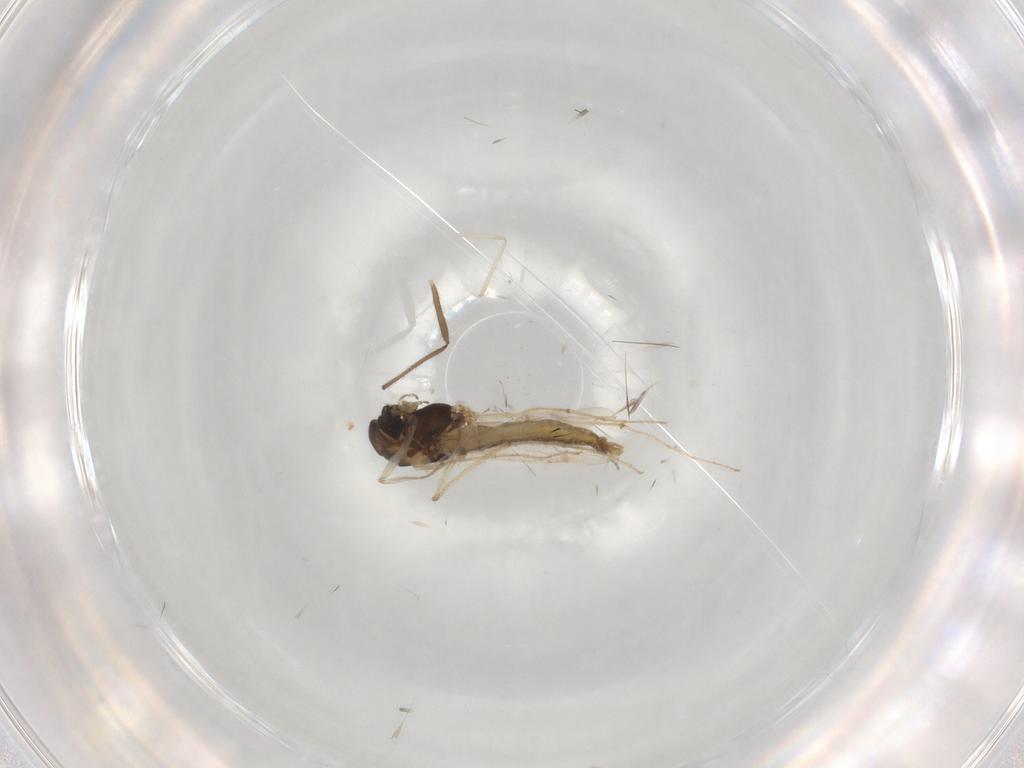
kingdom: Animalia
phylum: Arthropoda
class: Insecta
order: Diptera
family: Chironomidae
